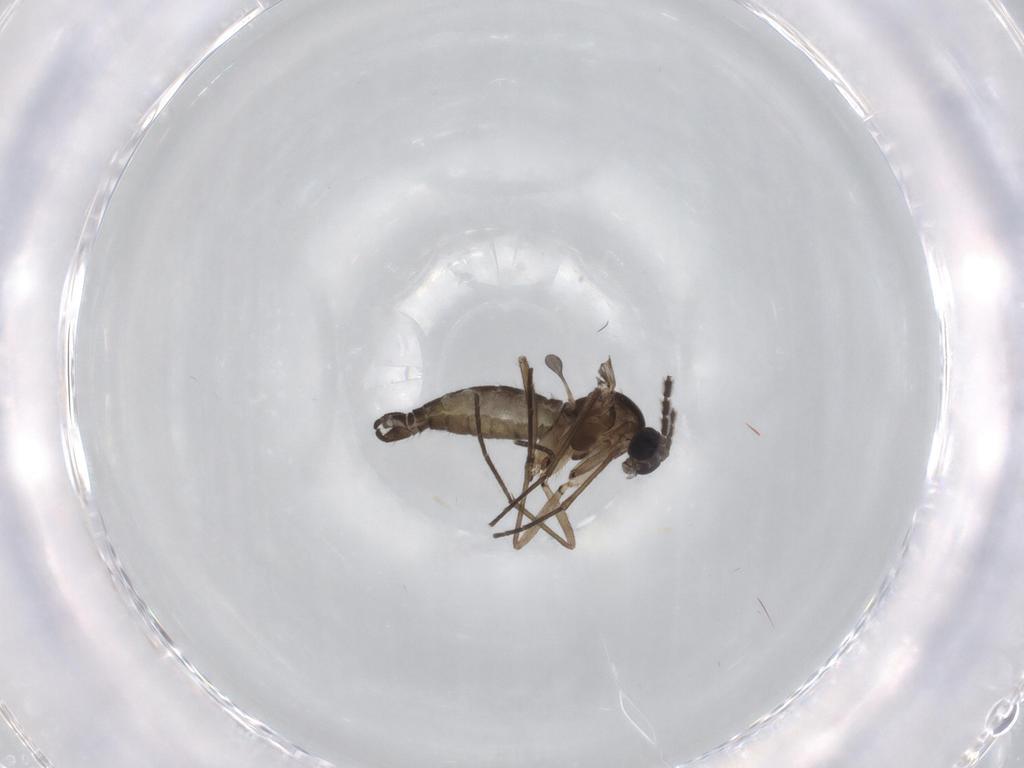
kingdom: Animalia
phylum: Arthropoda
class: Insecta
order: Diptera
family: Sciaridae
